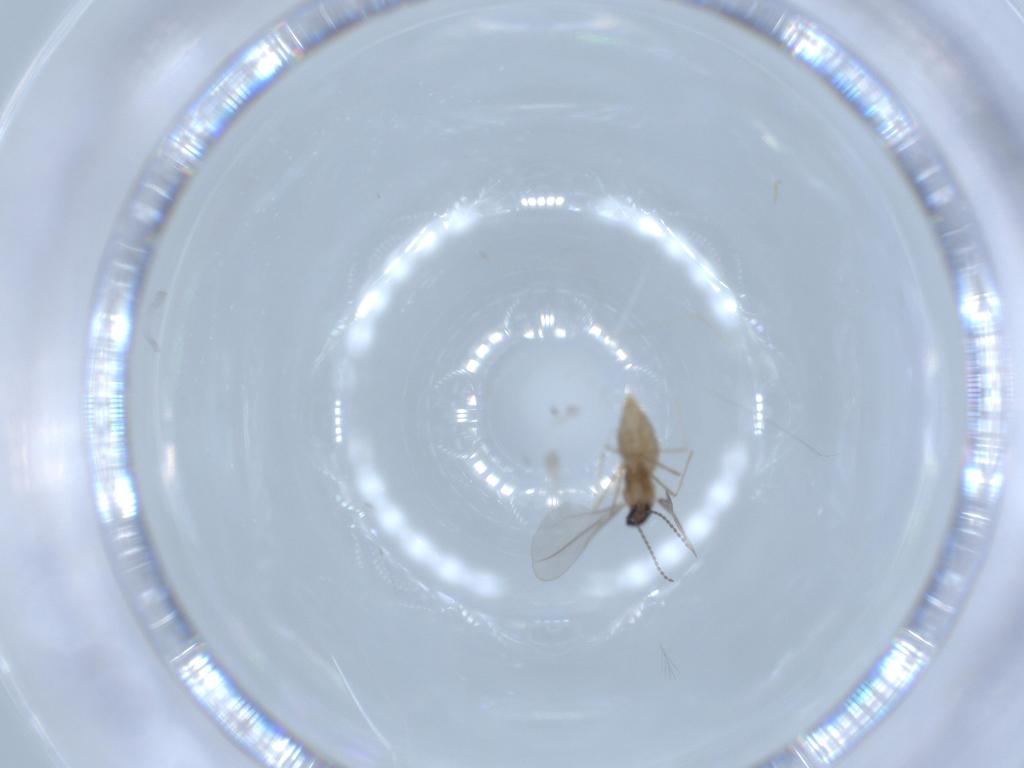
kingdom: Animalia
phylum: Arthropoda
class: Insecta
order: Diptera
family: Cecidomyiidae
